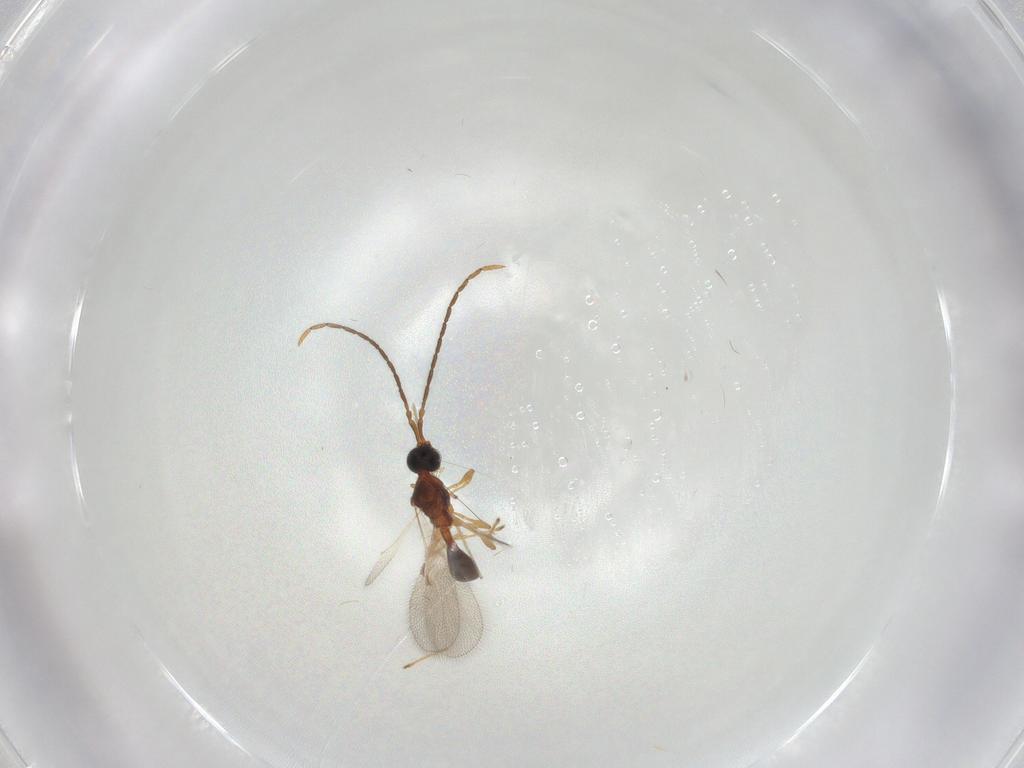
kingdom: Animalia
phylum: Arthropoda
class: Insecta
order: Hymenoptera
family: Diapriidae
